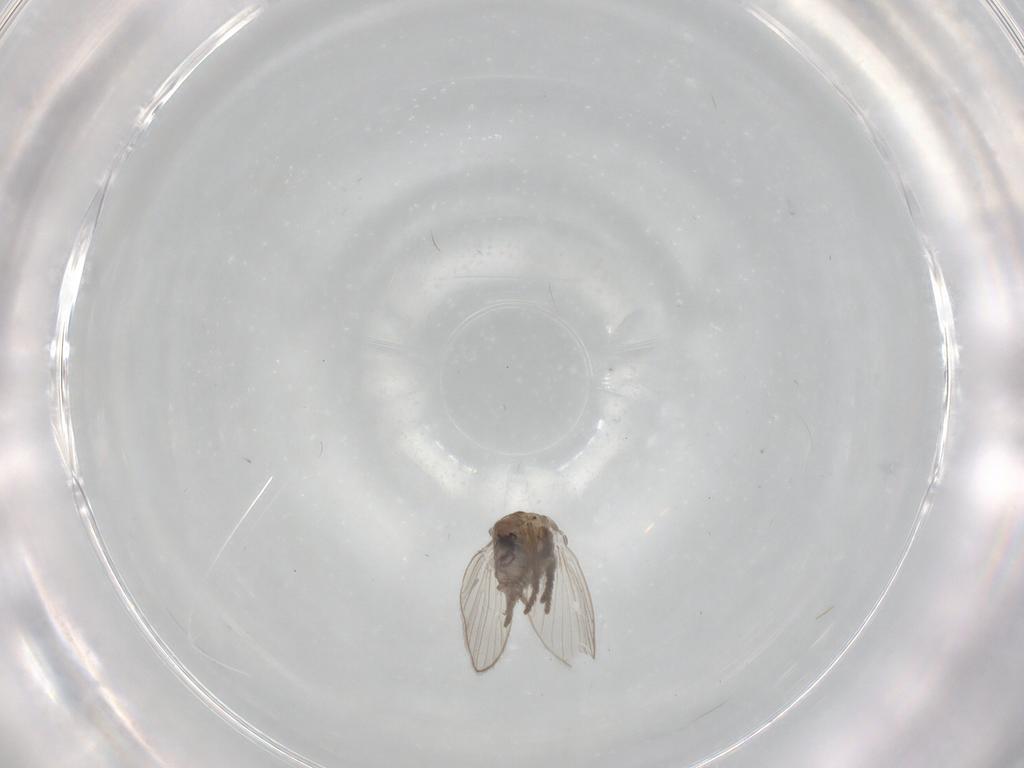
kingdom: Animalia
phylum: Arthropoda
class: Insecta
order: Diptera
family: Psychodidae
